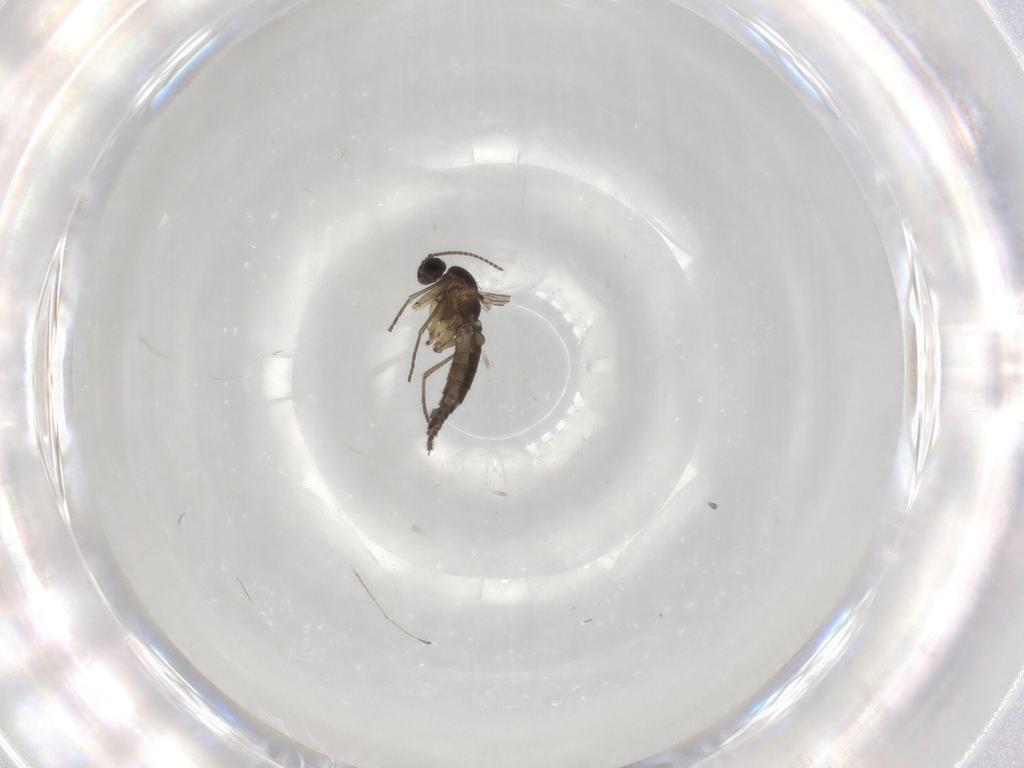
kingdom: Animalia
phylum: Arthropoda
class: Insecta
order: Diptera
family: Sciaridae
